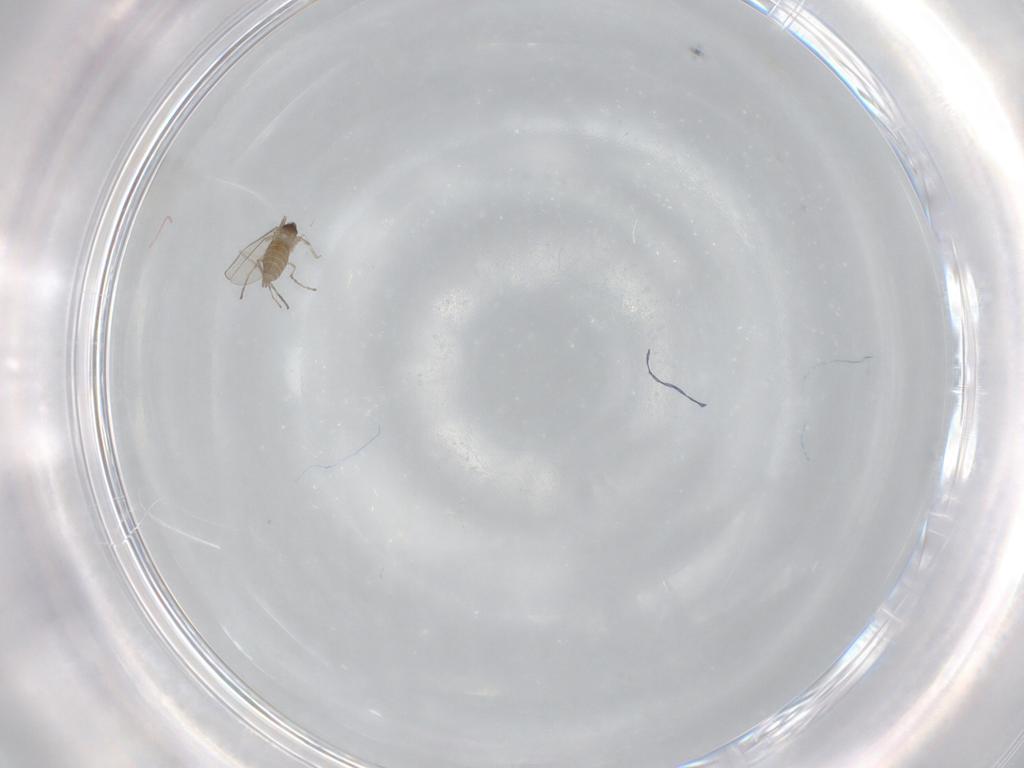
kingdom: Animalia
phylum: Arthropoda
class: Insecta
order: Diptera
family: Cecidomyiidae
